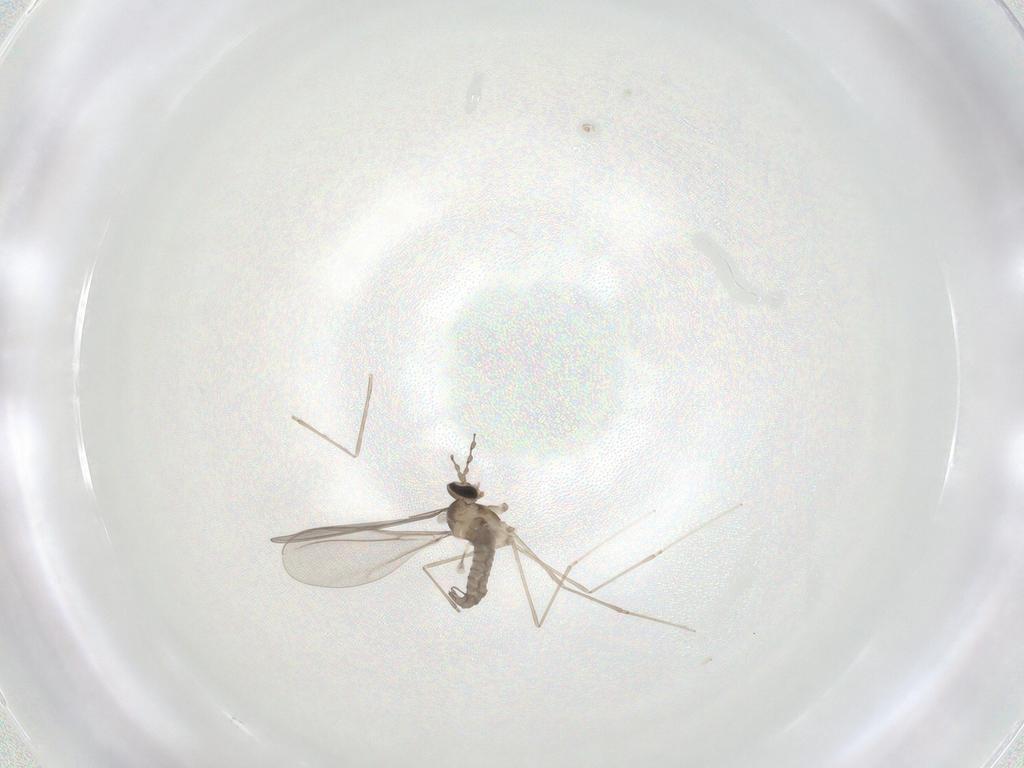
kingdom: Animalia
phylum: Arthropoda
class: Insecta
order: Diptera
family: Cecidomyiidae
